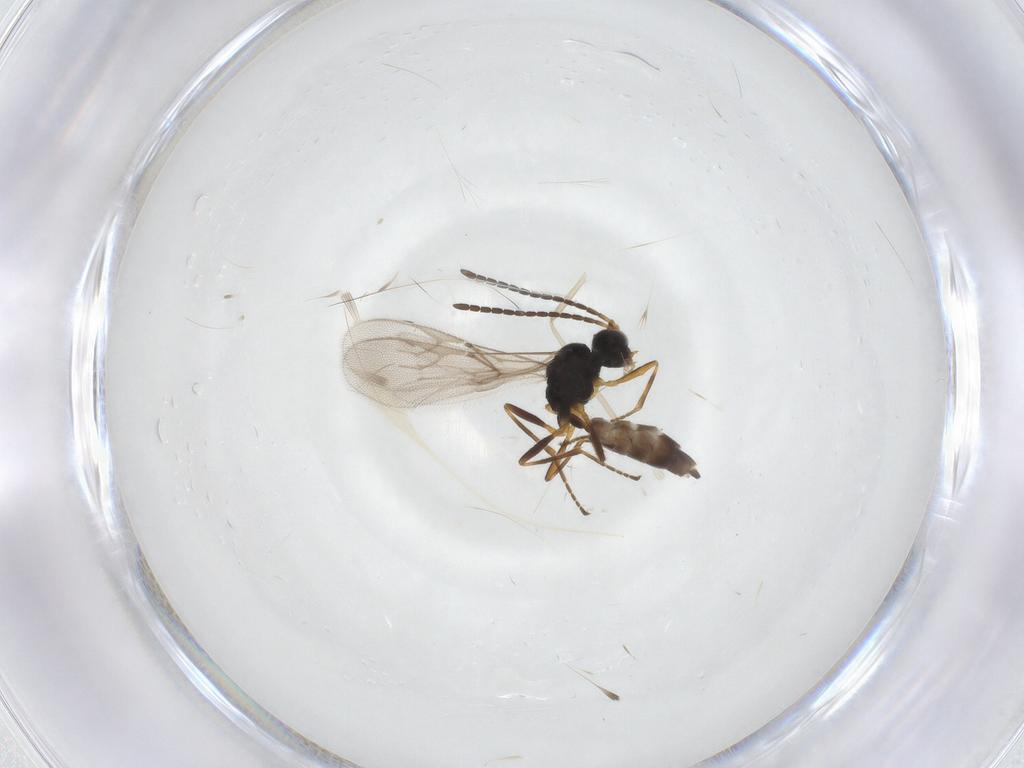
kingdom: Animalia
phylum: Arthropoda
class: Insecta
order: Hymenoptera
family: Braconidae
